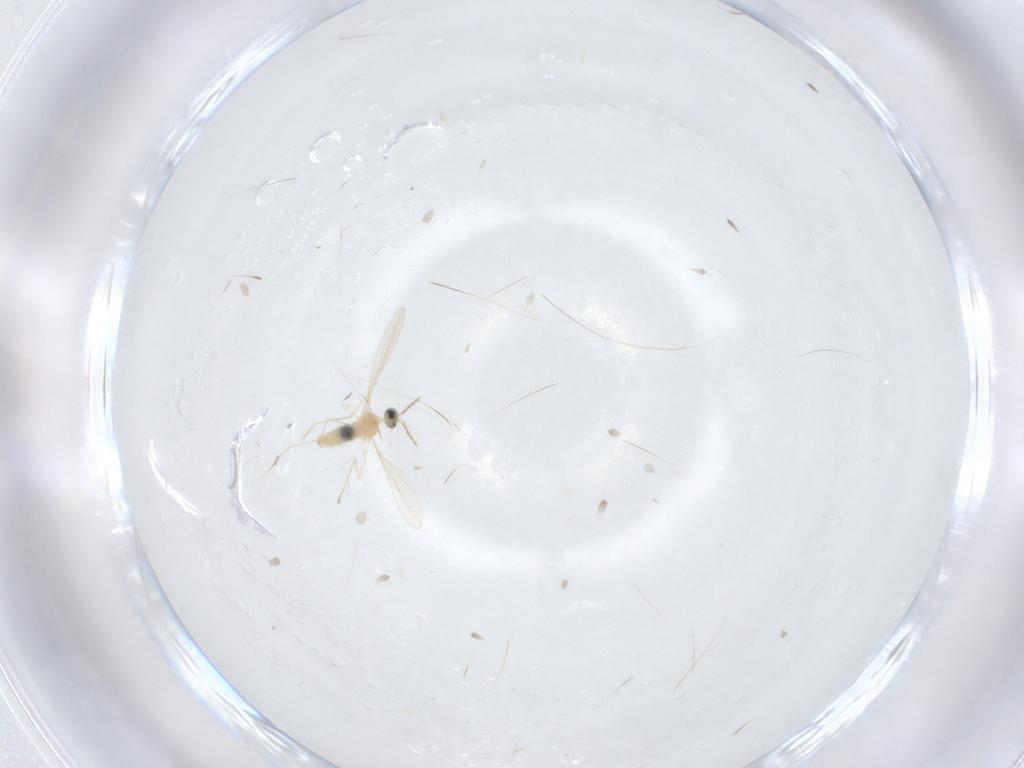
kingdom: Animalia
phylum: Arthropoda
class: Insecta
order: Diptera
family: Cecidomyiidae
